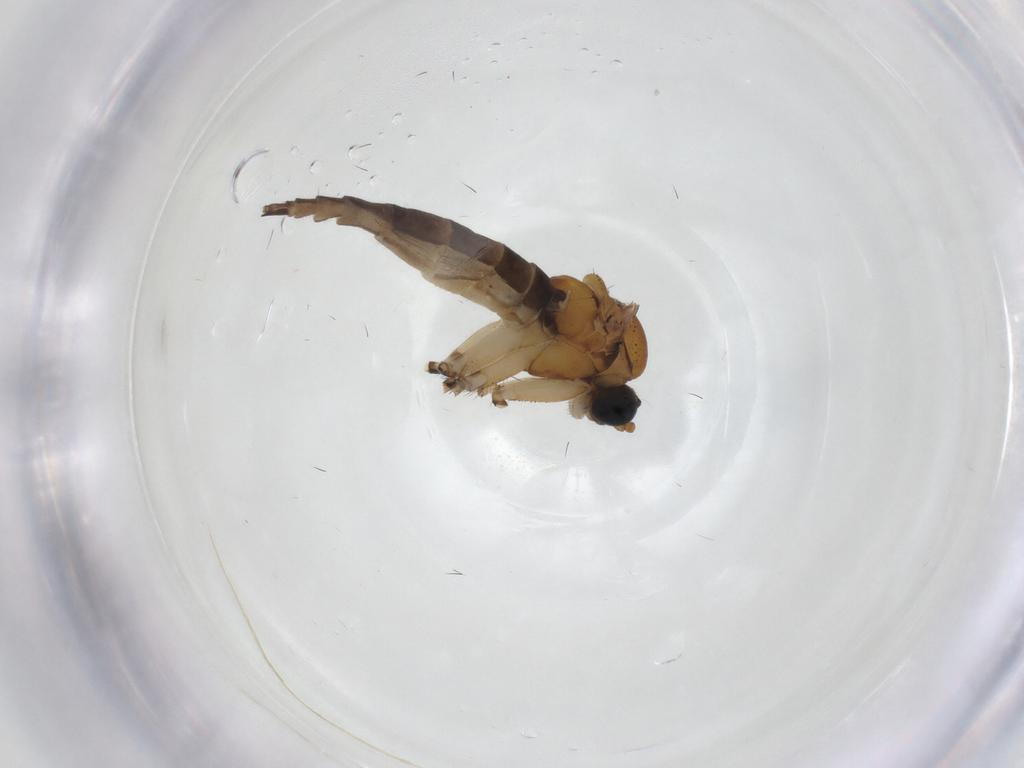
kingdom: Animalia
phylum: Arthropoda
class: Insecta
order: Diptera
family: Sciaridae
